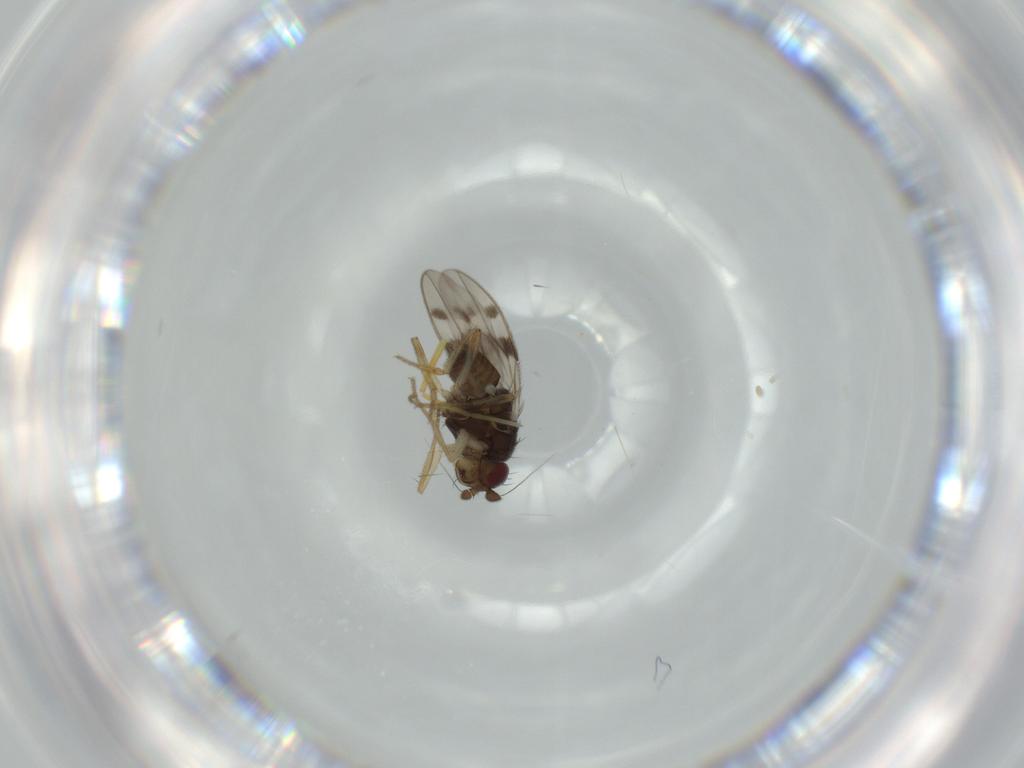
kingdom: Animalia
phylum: Arthropoda
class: Insecta
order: Diptera
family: Sphaeroceridae
